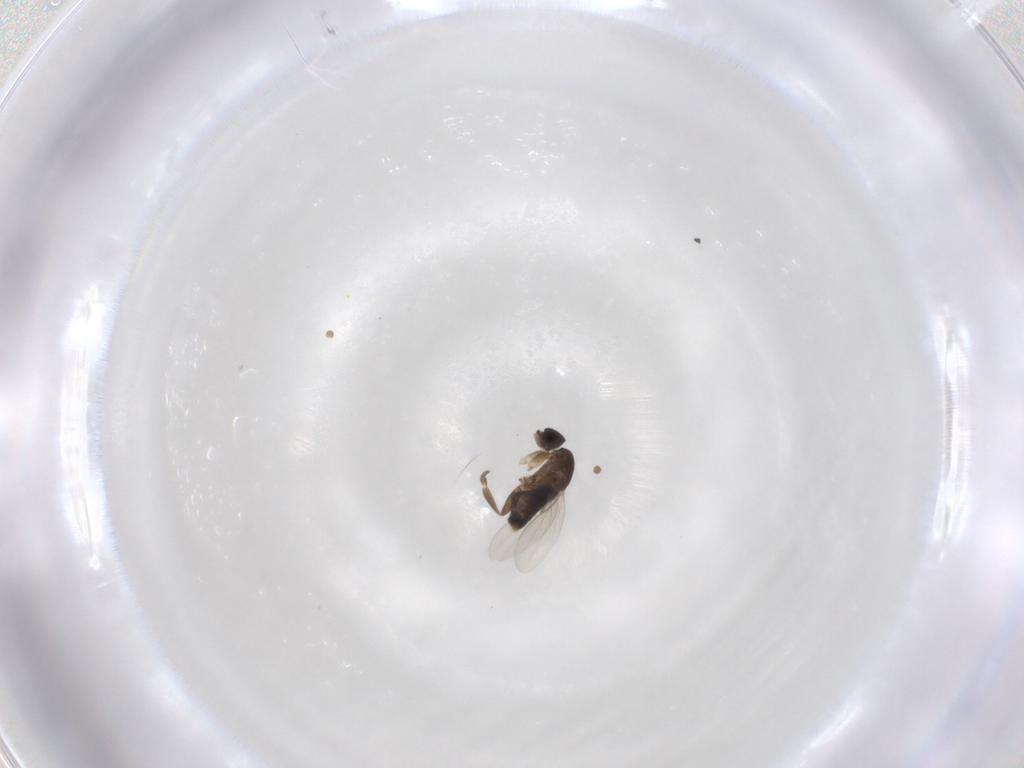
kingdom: Animalia
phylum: Arthropoda
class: Insecta
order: Diptera
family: Phoridae
